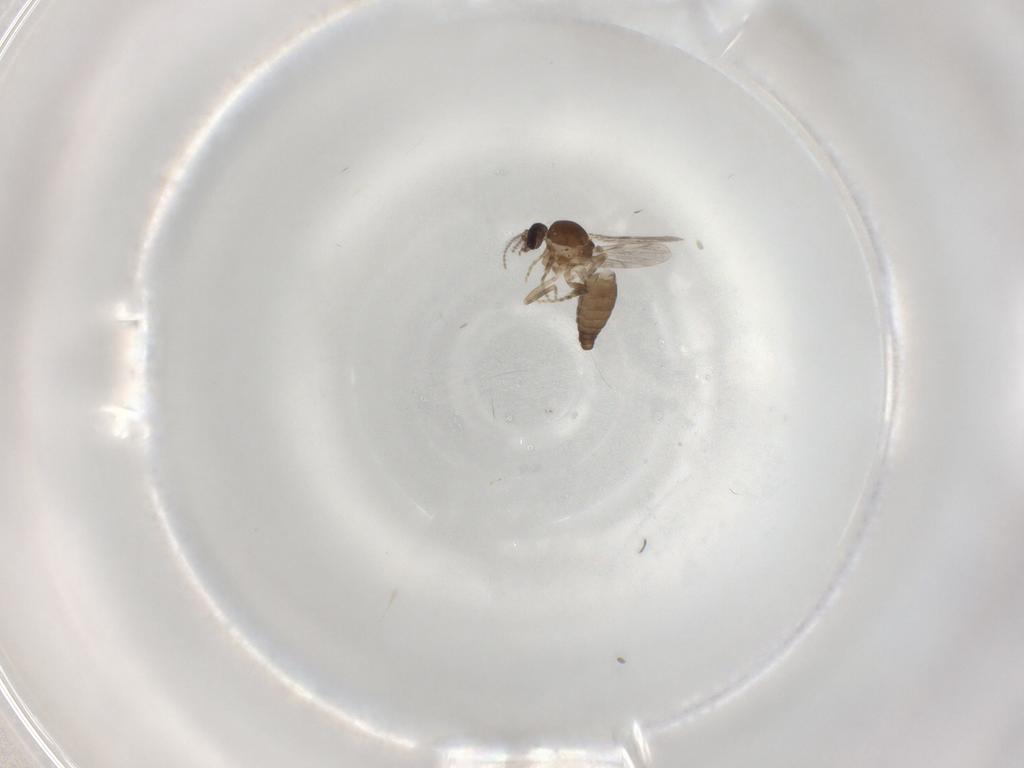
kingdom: Animalia
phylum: Arthropoda
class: Insecta
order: Diptera
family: Ceratopogonidae
